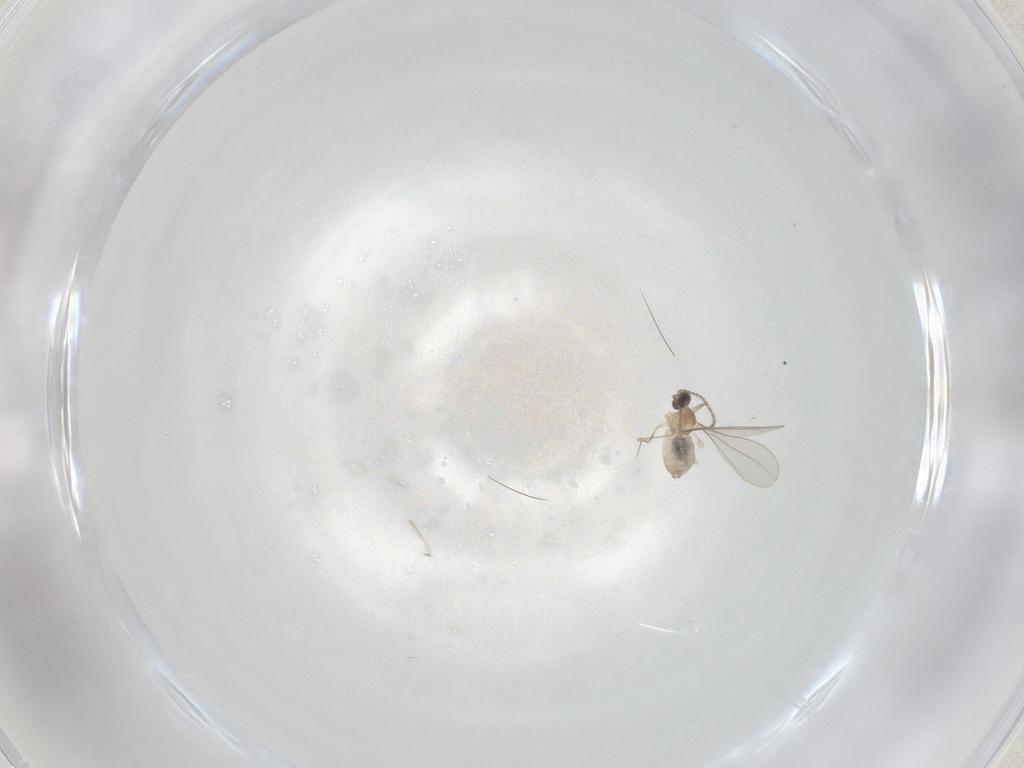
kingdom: Animalia
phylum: Arthropoda
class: Insecta
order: Diptera
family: Cecidomyiidae
